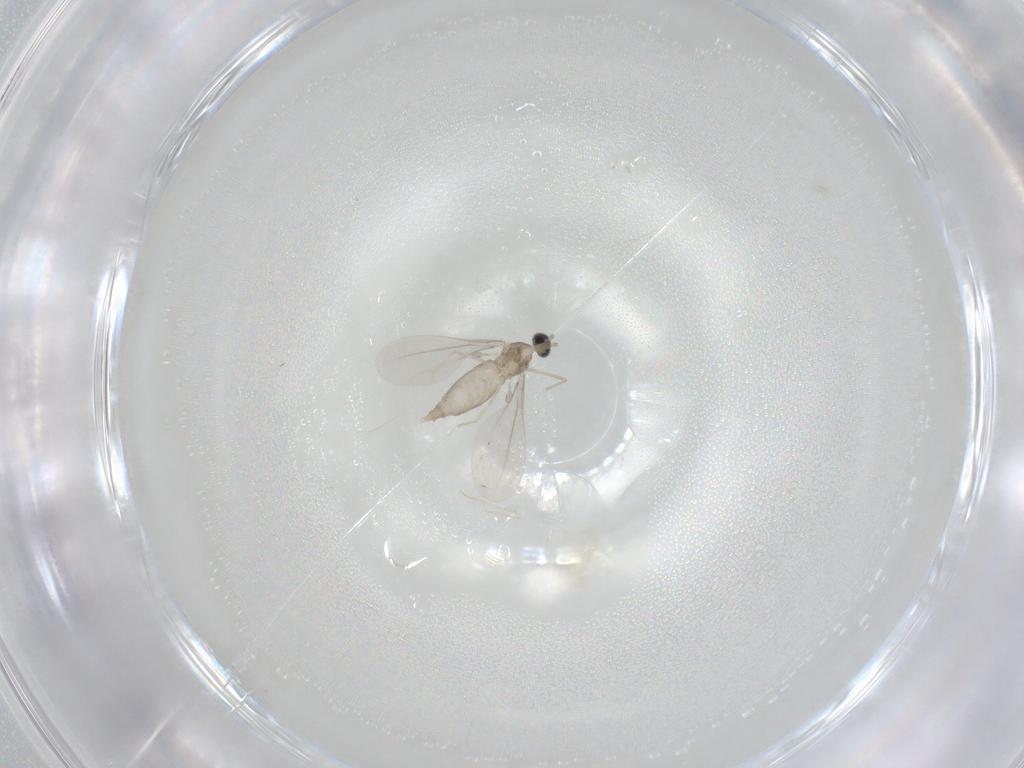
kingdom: Animalia
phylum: Arthropoda
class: Insecta
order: Diptera
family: Cecidomyiidae
